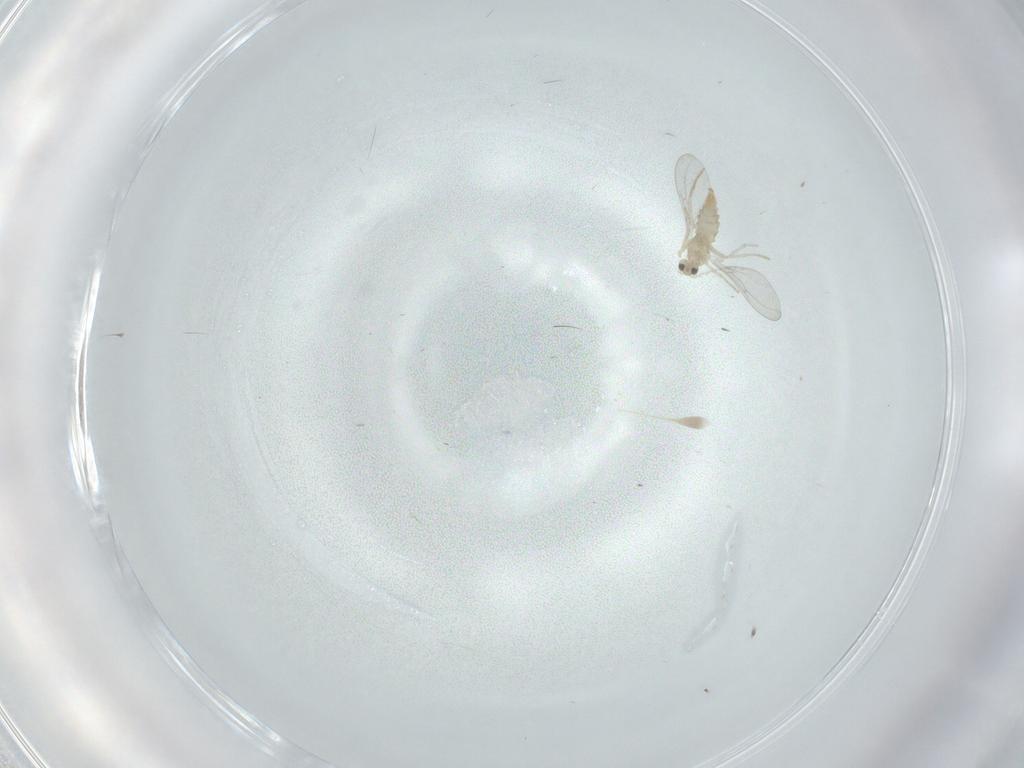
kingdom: Animalia
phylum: Arthropoda
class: Insecta
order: Diptera
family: Cecidomyiidae
